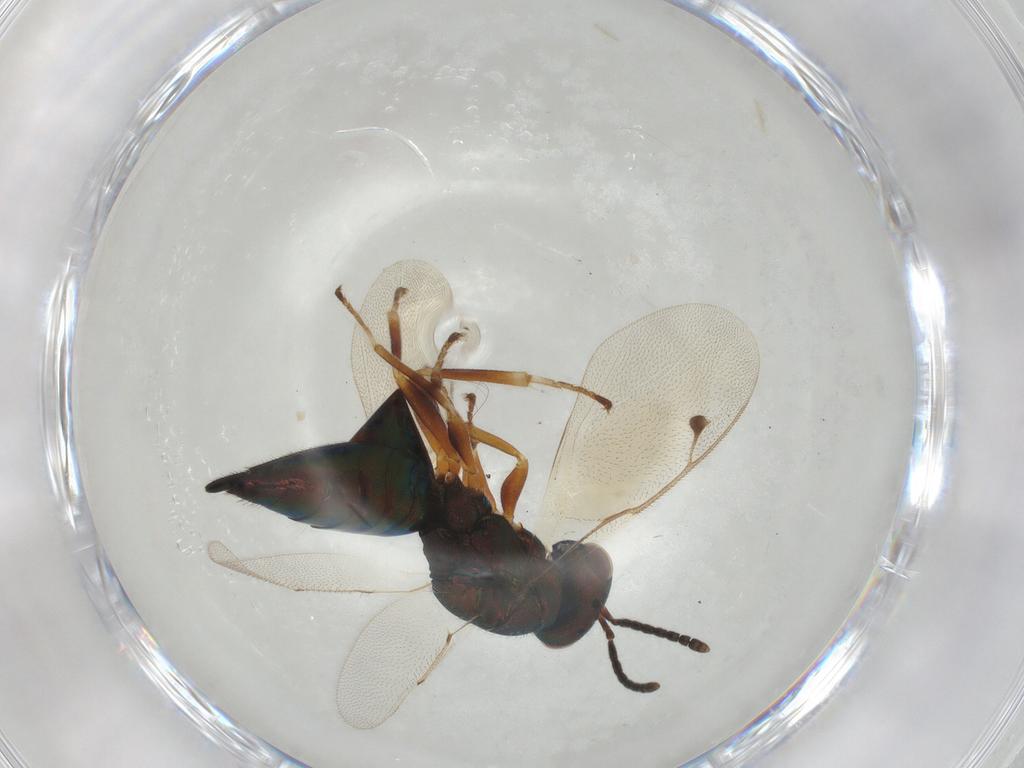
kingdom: Animalia
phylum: Arthropoda
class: Insecta
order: Hymenoptera
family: Pteromalidae
